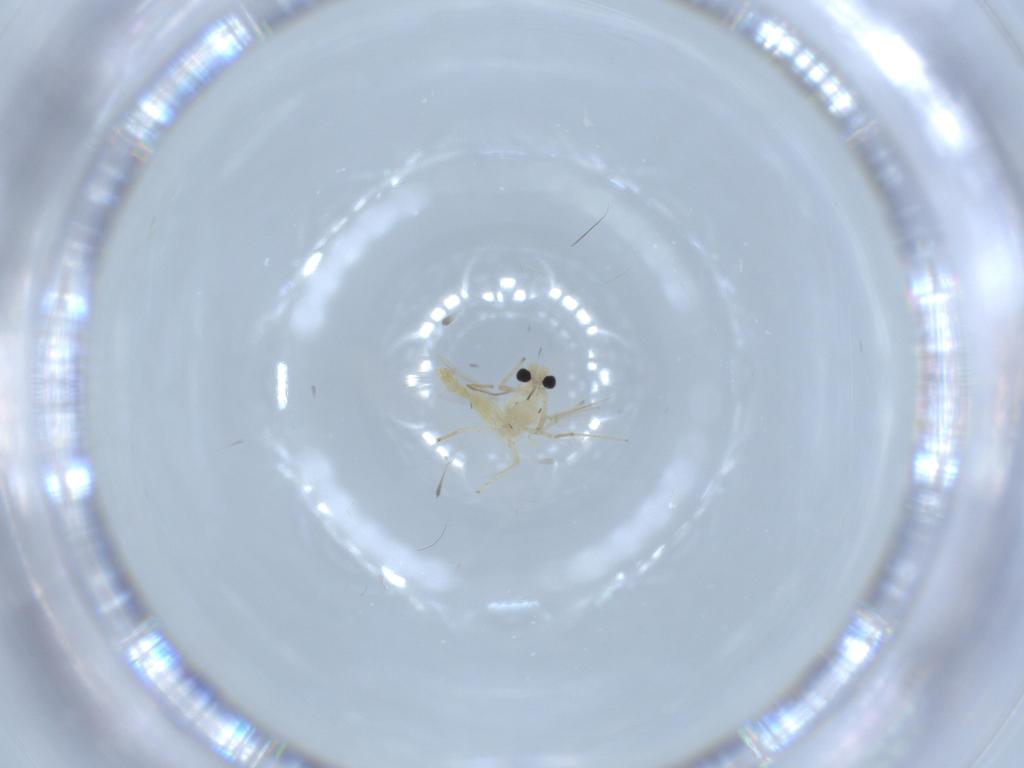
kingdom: Animalia
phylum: Arthropoda
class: Insecta
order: Diptera
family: Chironomidae
